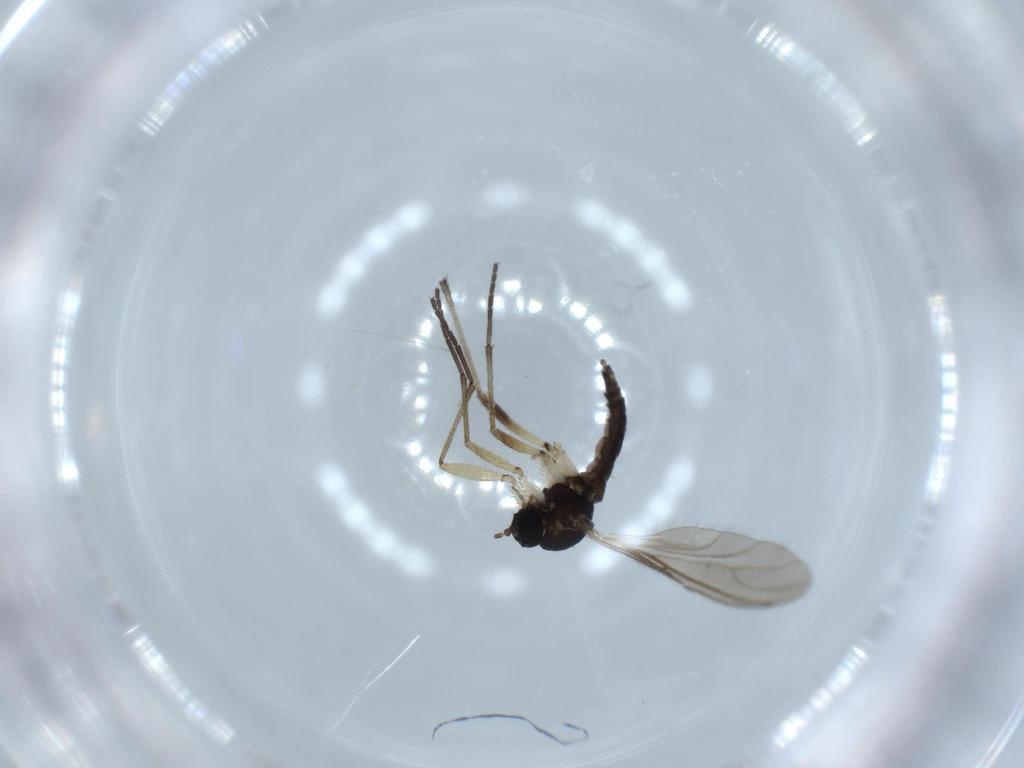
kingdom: Animalia
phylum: Arthropoda
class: Insecta
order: Diptera
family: Sciaridae
